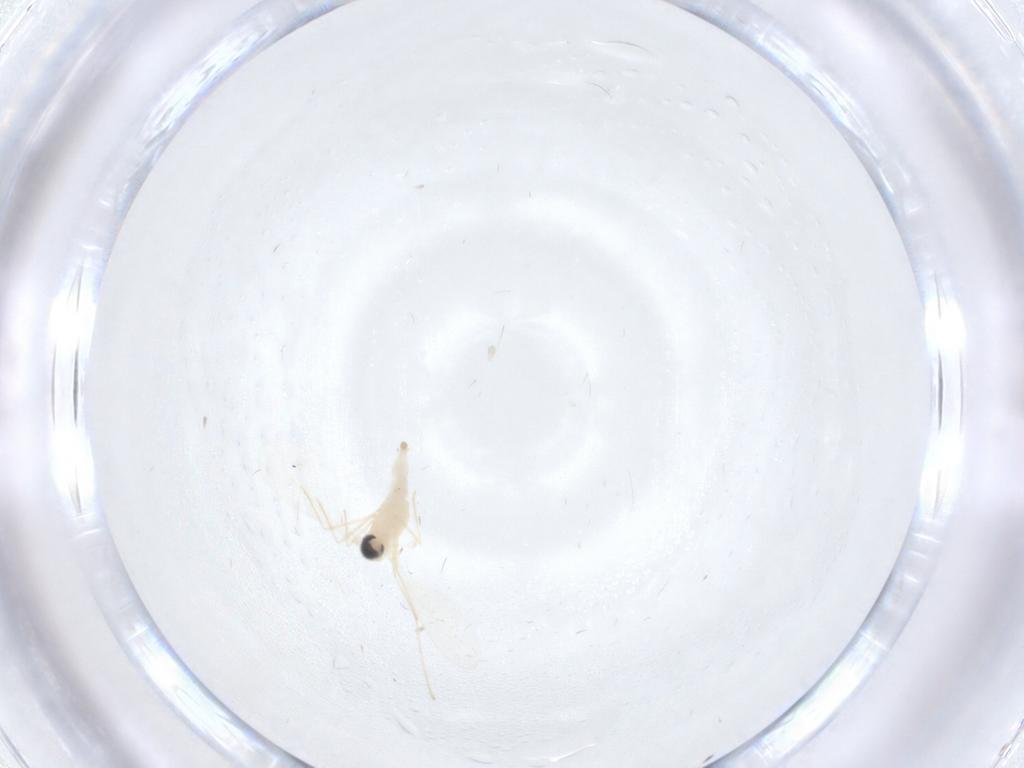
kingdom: Animalia
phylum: Arthropoda
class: Insecta
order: Diptera
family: Cecidomyiidae
